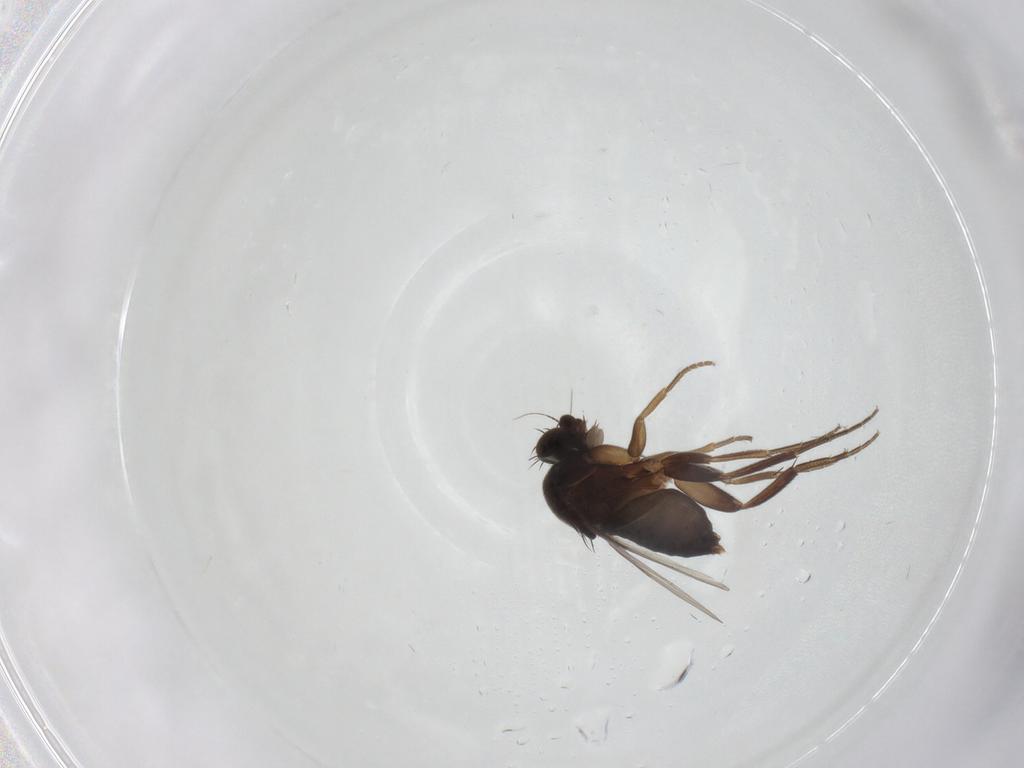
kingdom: Animalia
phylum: Arthropoda
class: Insecta
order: Diptera
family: Phoridae
